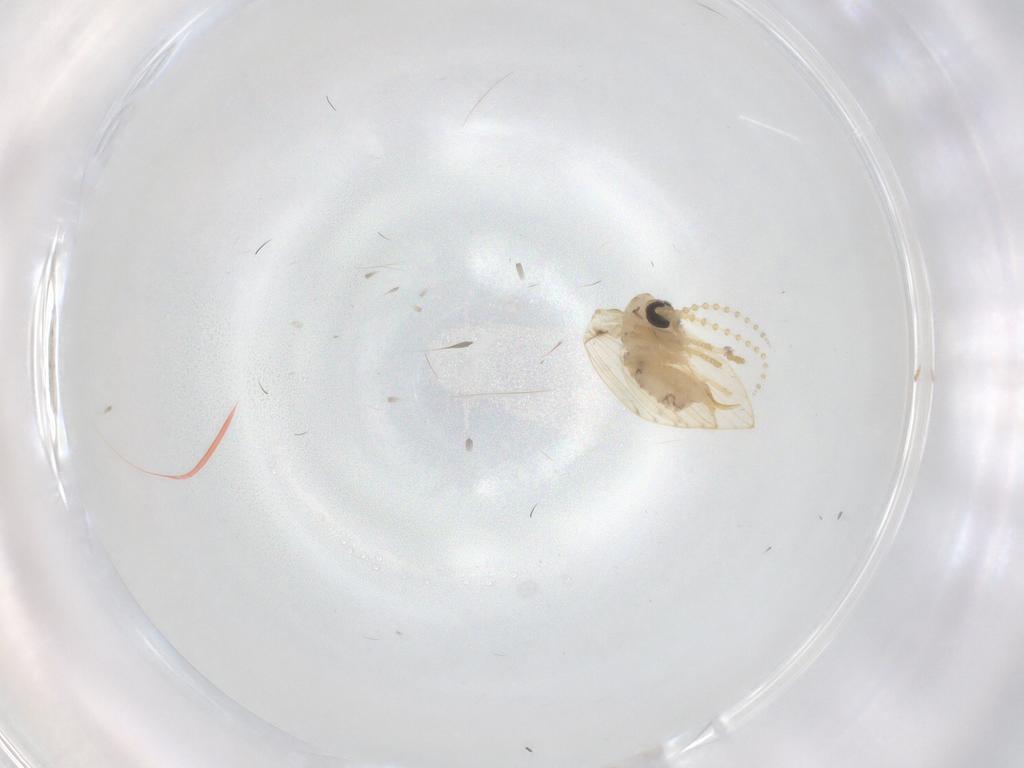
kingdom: Animalia
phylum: Arthropoda
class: Insecta
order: Diptera
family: Psychodidae
